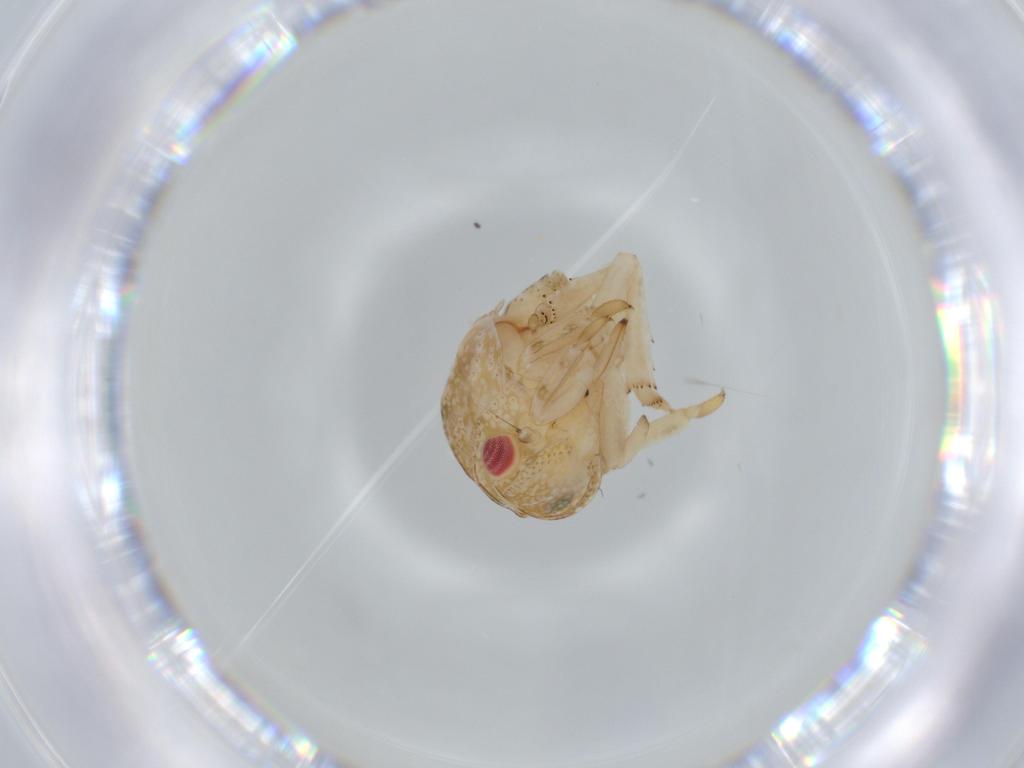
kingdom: Animalia
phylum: Arthropoda
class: Insecta
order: Hemiptera
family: Acanaloniidae
